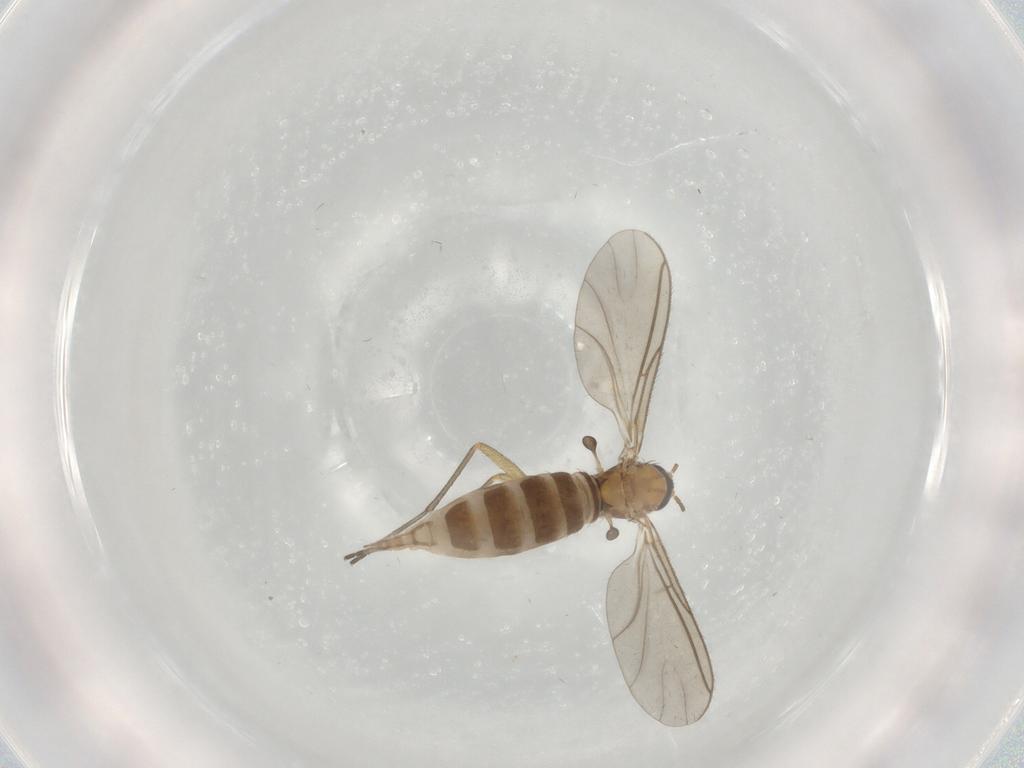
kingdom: Animalia
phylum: Arthropoda
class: Insecta
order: Diptera
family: Sciaridae
